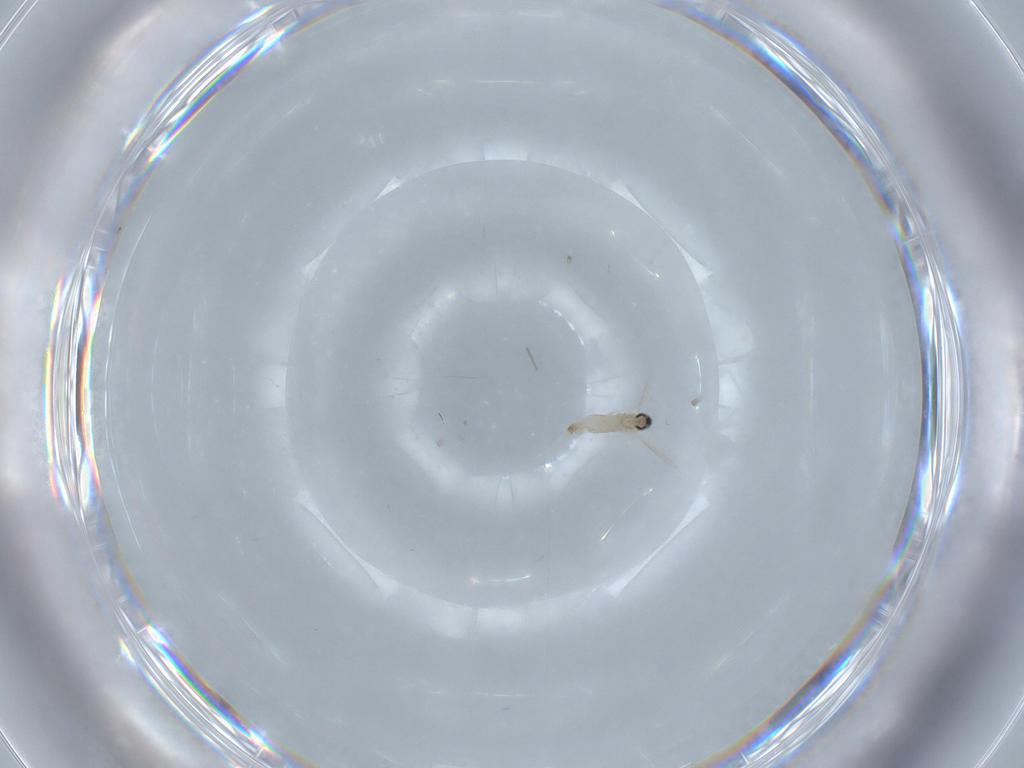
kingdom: Animalia
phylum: Arthropoda
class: Insecta
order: Diptera
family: Cecidomyiidae
